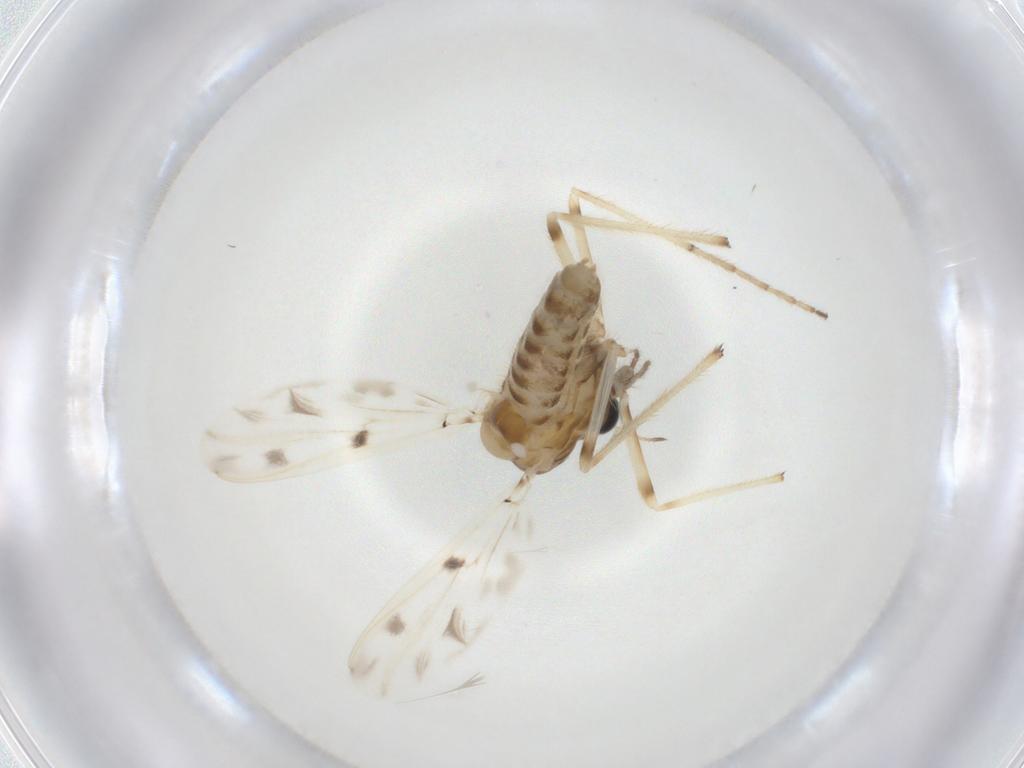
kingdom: Animalia
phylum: Arthropoda
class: Insecta
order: Diptera
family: Chironomidae
